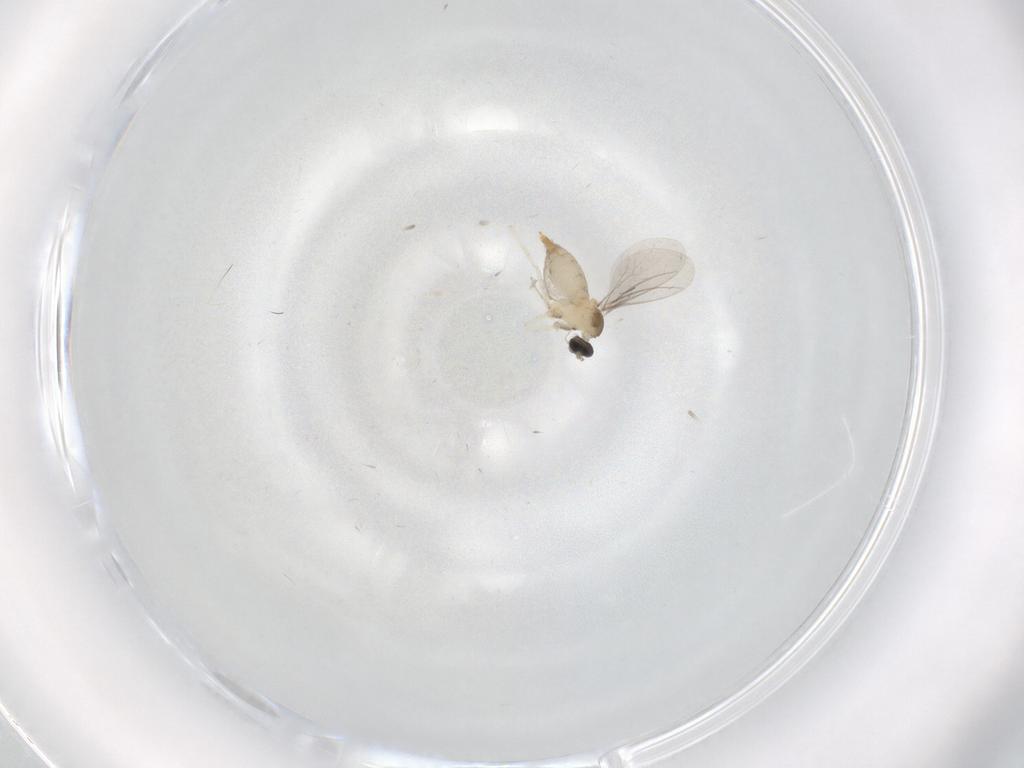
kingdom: Animalia
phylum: Arthropoda
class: Insecta
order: Diptera
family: Cecidomyiidae
